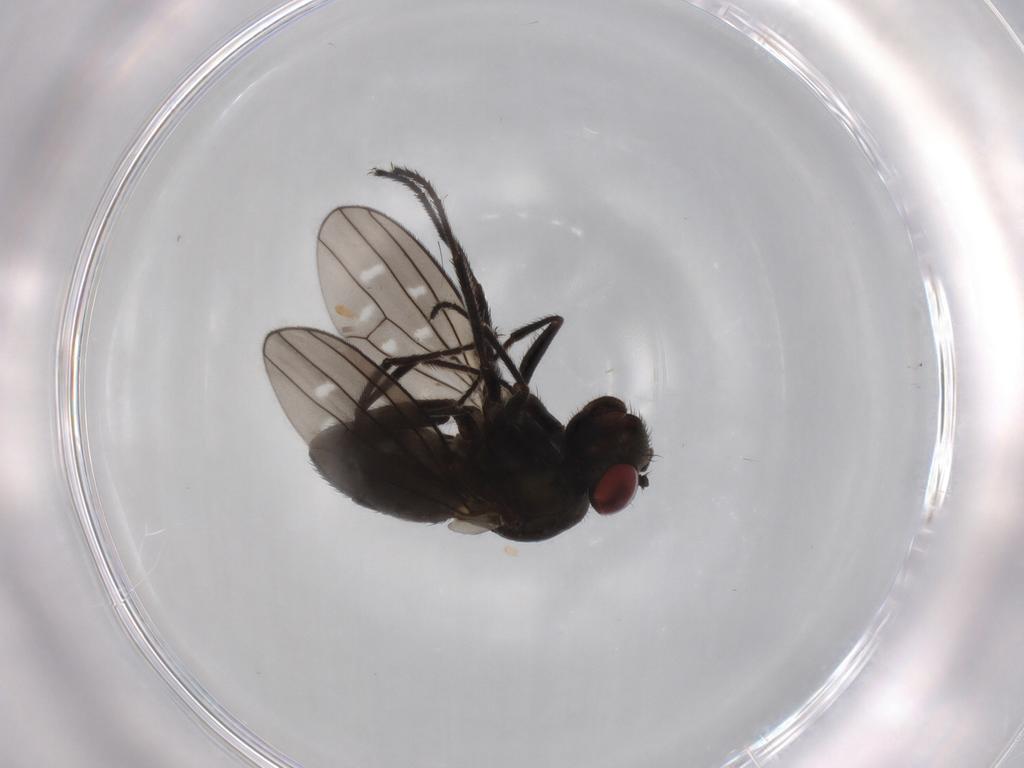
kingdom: Animalia
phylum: Arthropoda
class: Insecta
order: Diptera
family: Ephydridae
